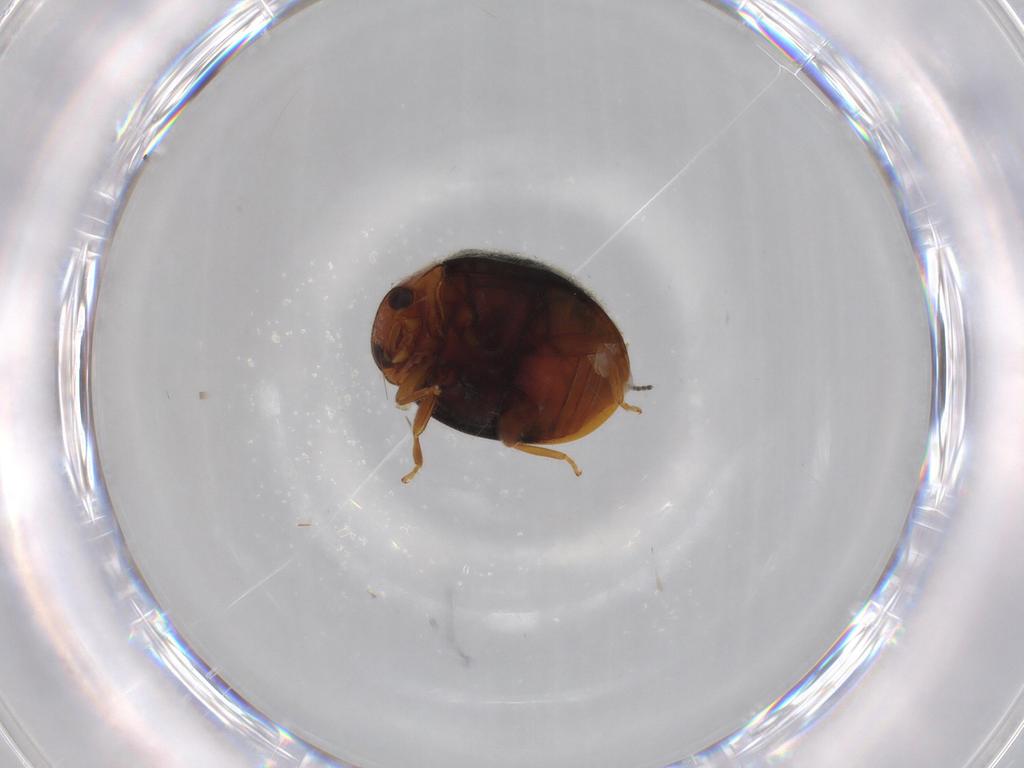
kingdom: Animalia
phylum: Arthropoda
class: Insecta
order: Coleoptera
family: Coccinellidae
